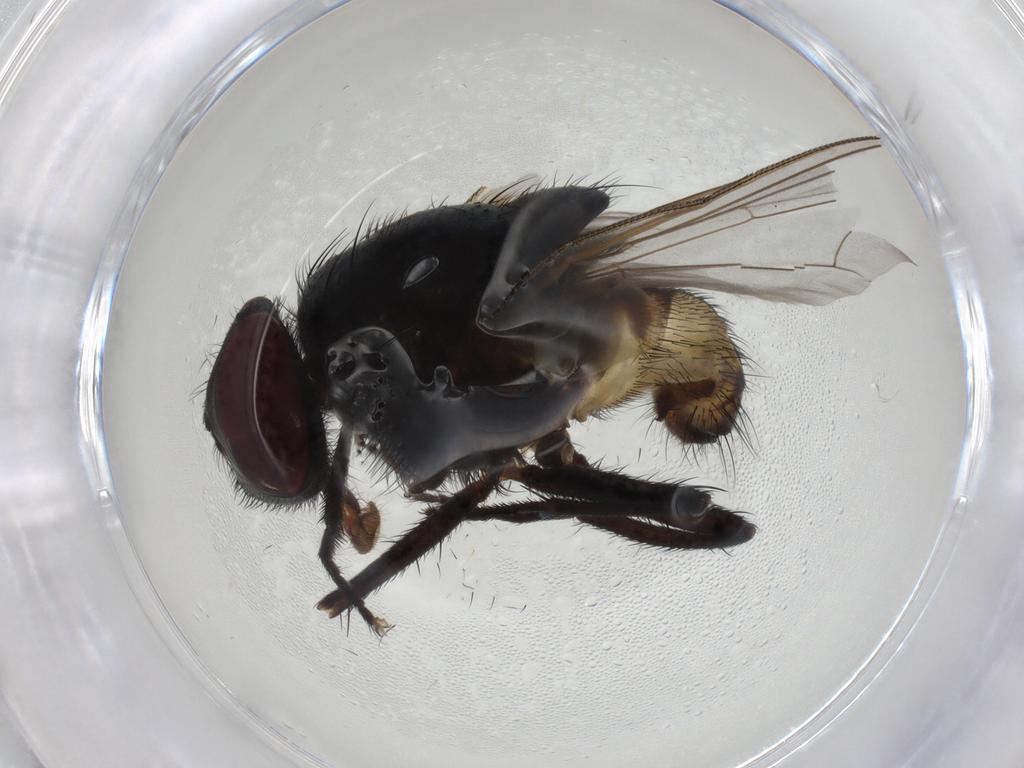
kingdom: Animalia
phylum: Arthropoda
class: Insecta
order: Diptera
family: Muscidae
